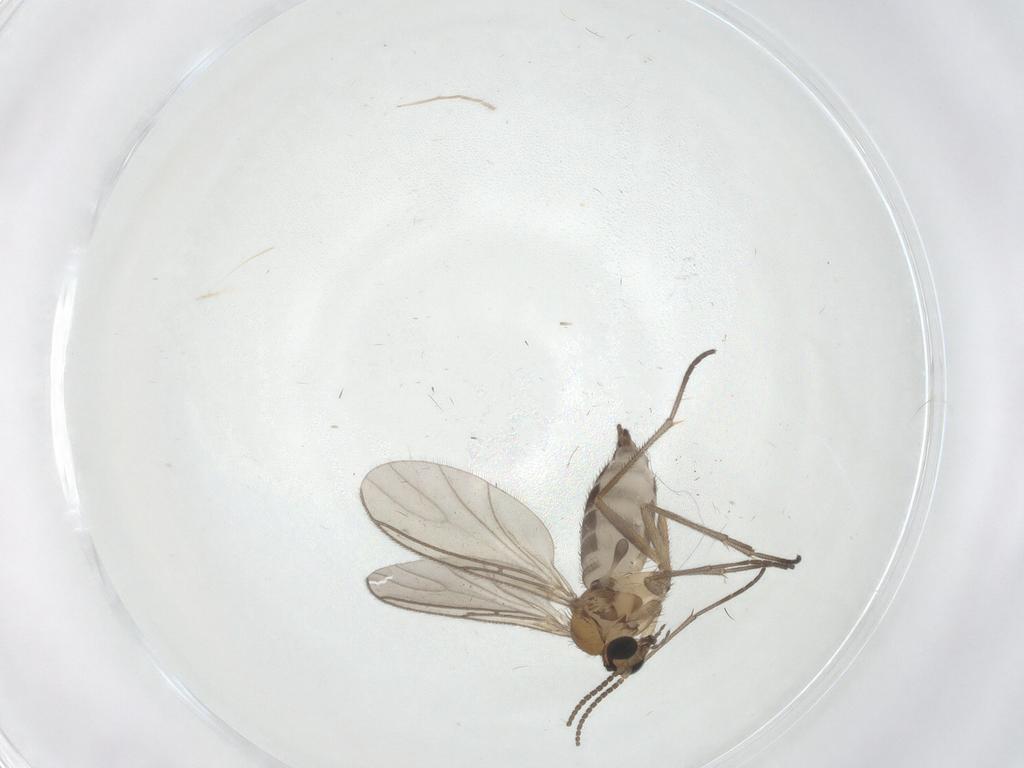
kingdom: Animalia
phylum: Arthropoda
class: Insecta
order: Diptera
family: Sciaridae
